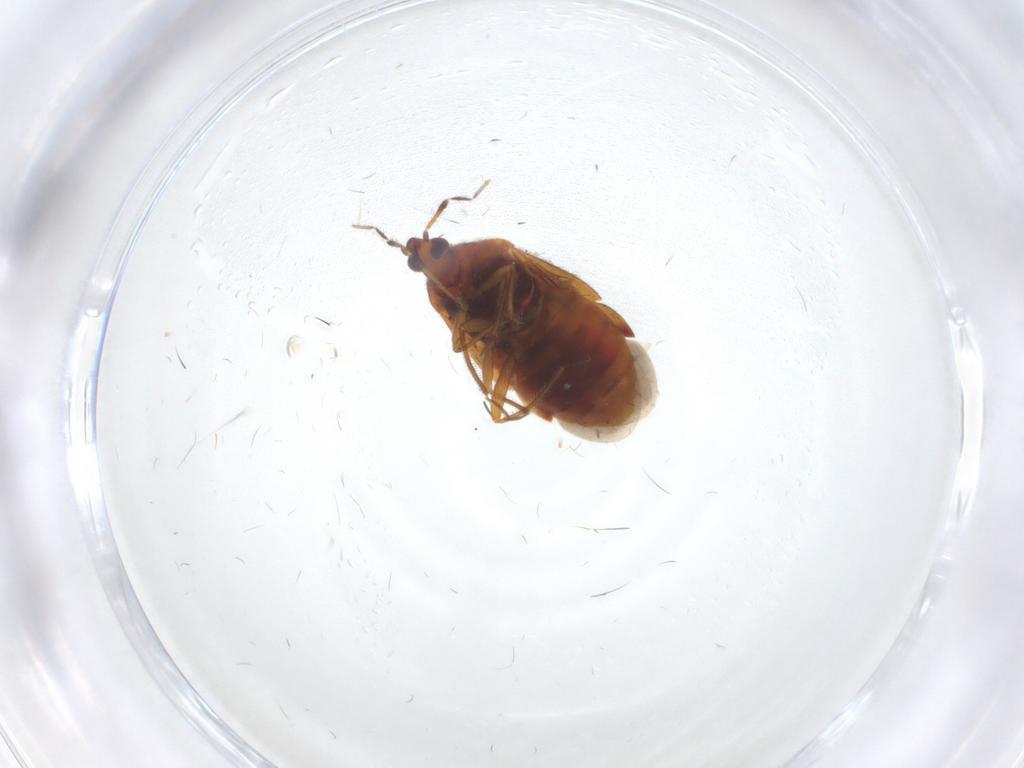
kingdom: Animalia
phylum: Arthropoda
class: Insecta
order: Hemiptera
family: Anthocoridae
